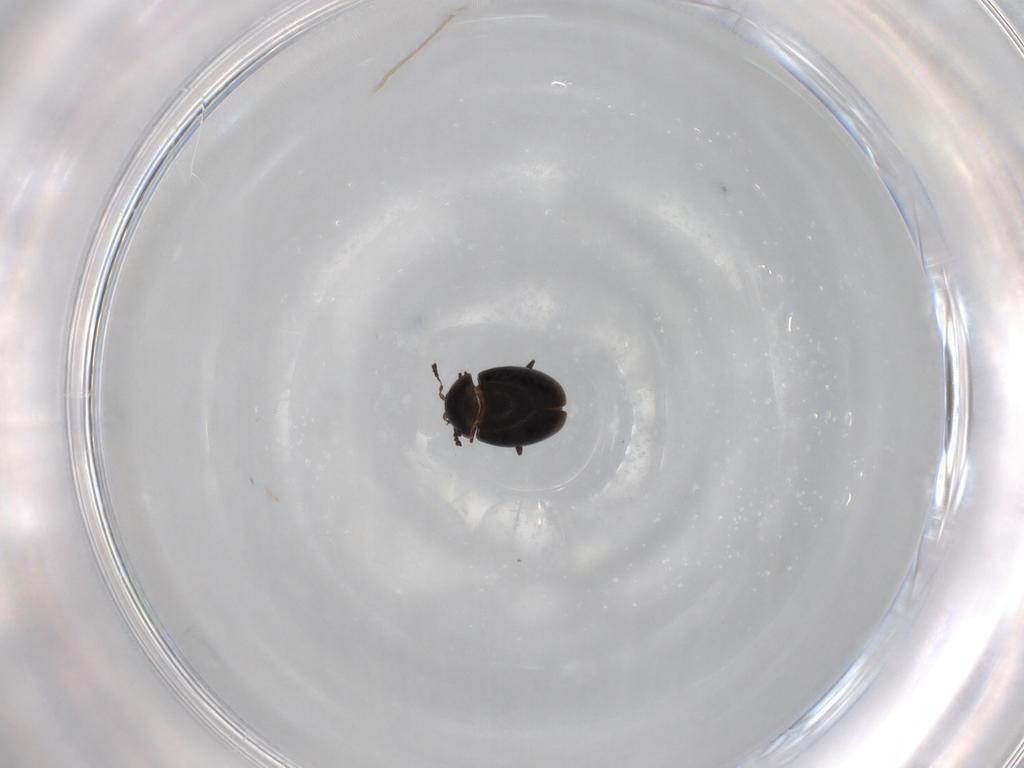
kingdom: Animalia
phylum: Arthropoda
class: Insecta
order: Coleoptera
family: Corylophidae
